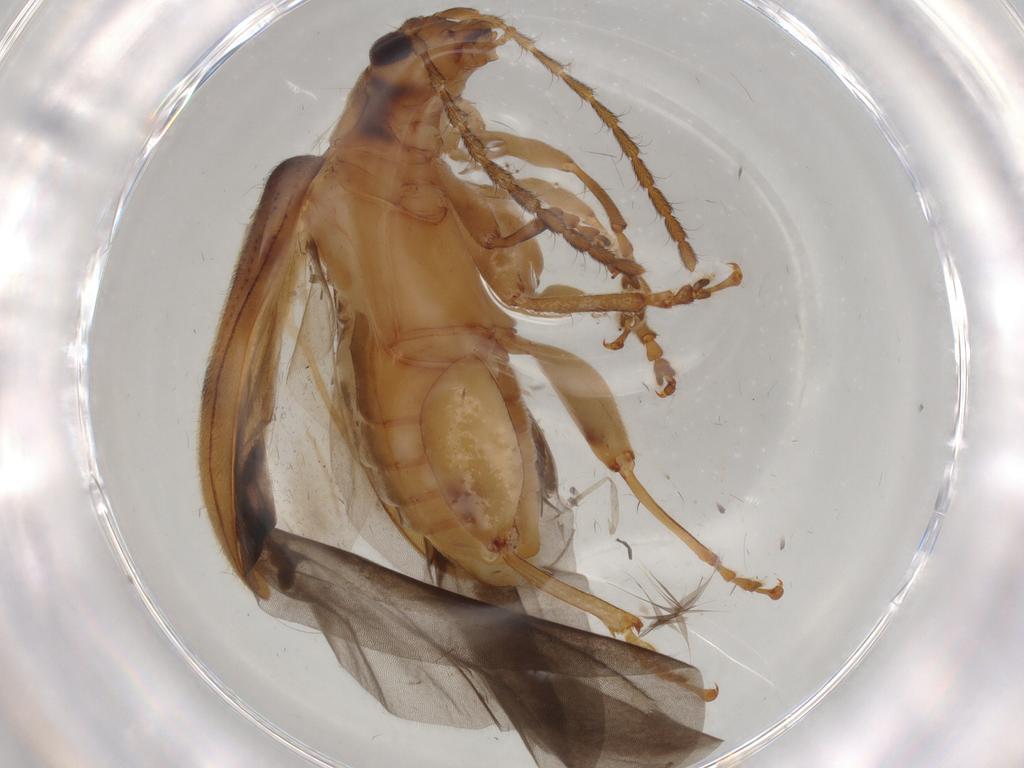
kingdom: Animalia
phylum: Arthropoda
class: Insecta
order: Coleoptera
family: Chrysomelidae
